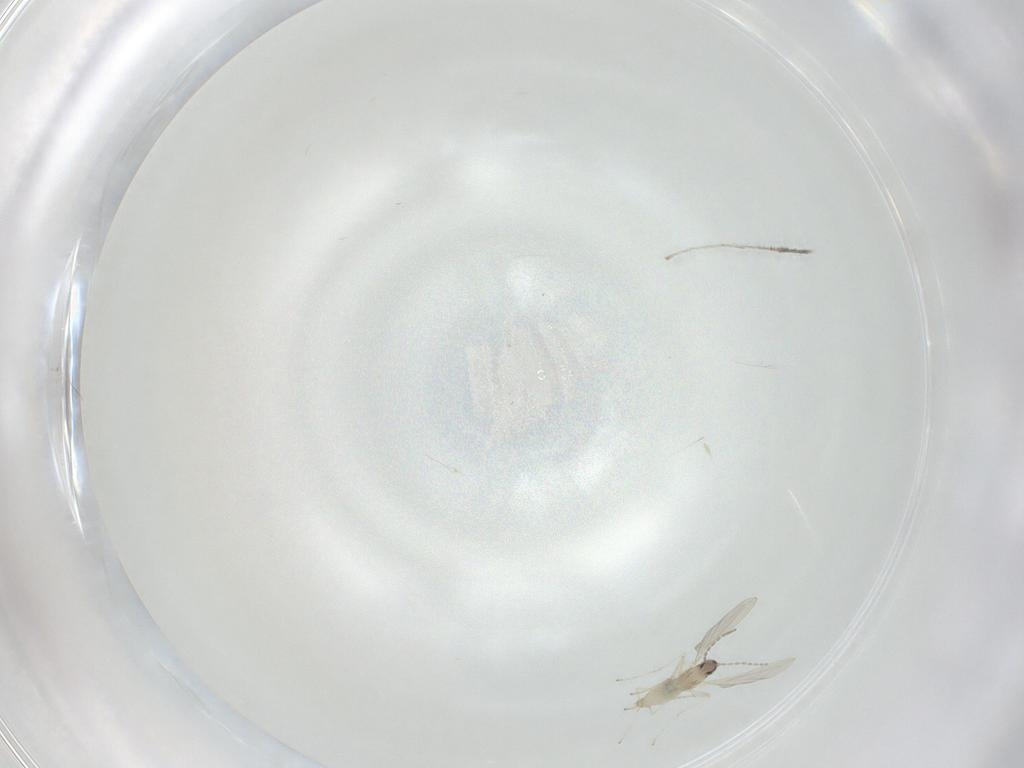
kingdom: Animalia
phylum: Arthropoda
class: Insecta
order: Diptera
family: Cecidomyiidae
